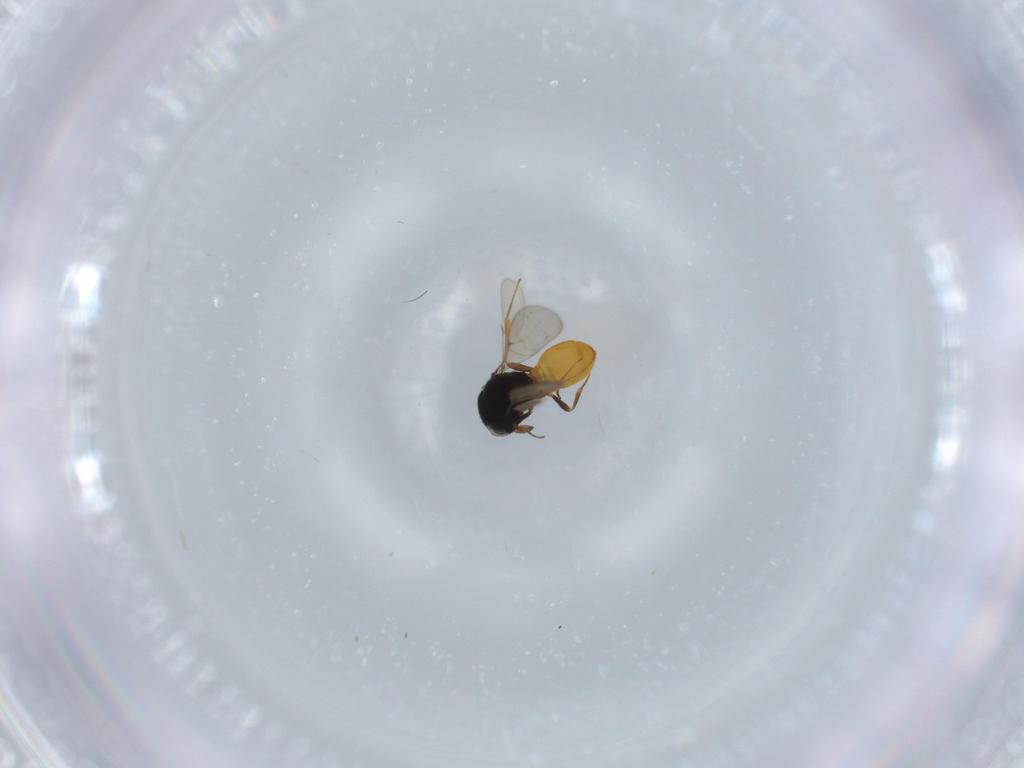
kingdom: Animalia
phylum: Arthropoda
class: Insecta
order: Hymenoptera
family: Scelionidae
